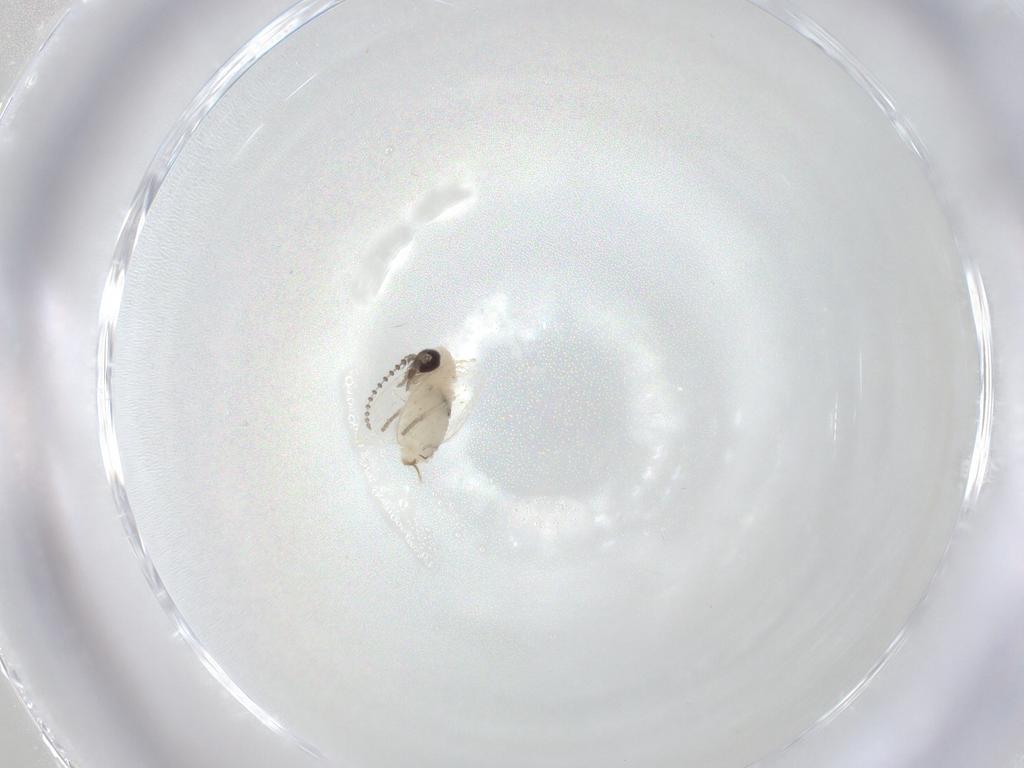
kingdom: Animalia
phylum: Arthropoda
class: Insecta
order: Diptera
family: Psychodidae
